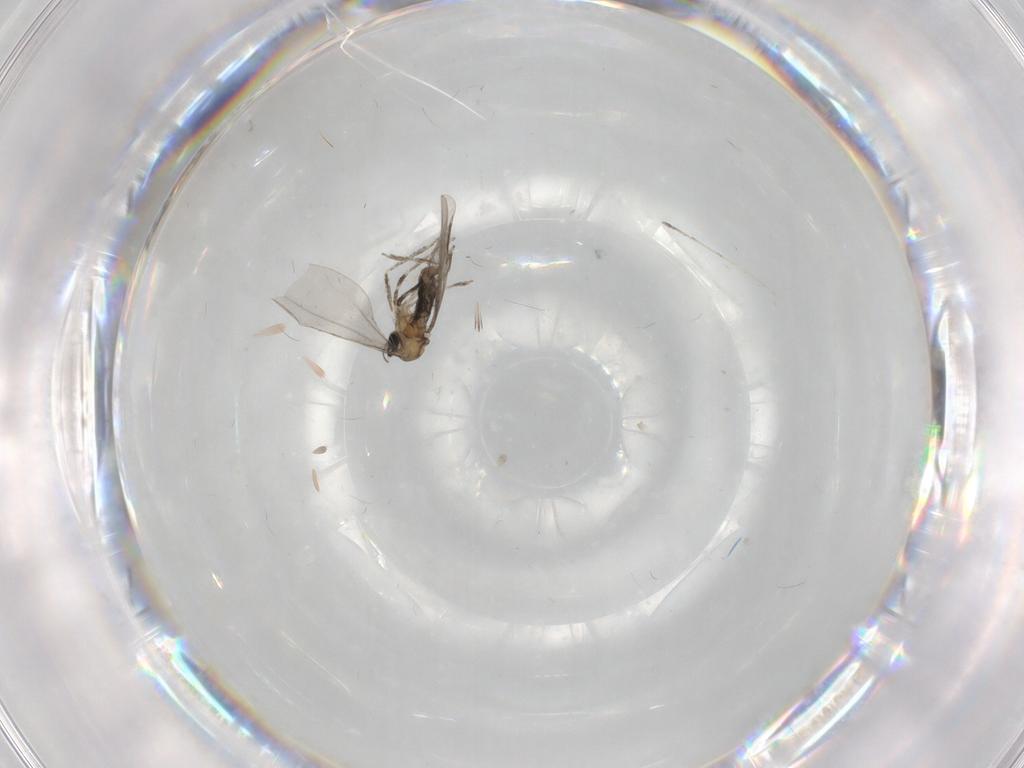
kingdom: Animalia
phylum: Arthropoda
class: Insecta
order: Diptera
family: Cecidomyiidae
